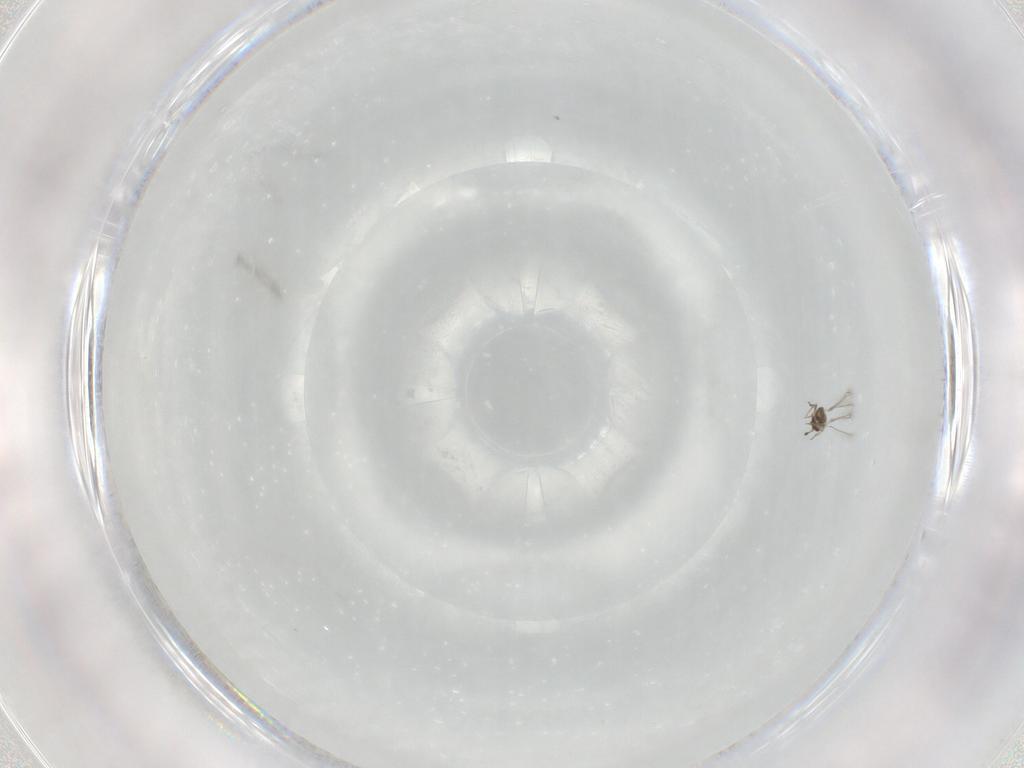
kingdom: Animalia
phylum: Arthropoda
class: Insecta
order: Hymenoptera
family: Mymaridae
